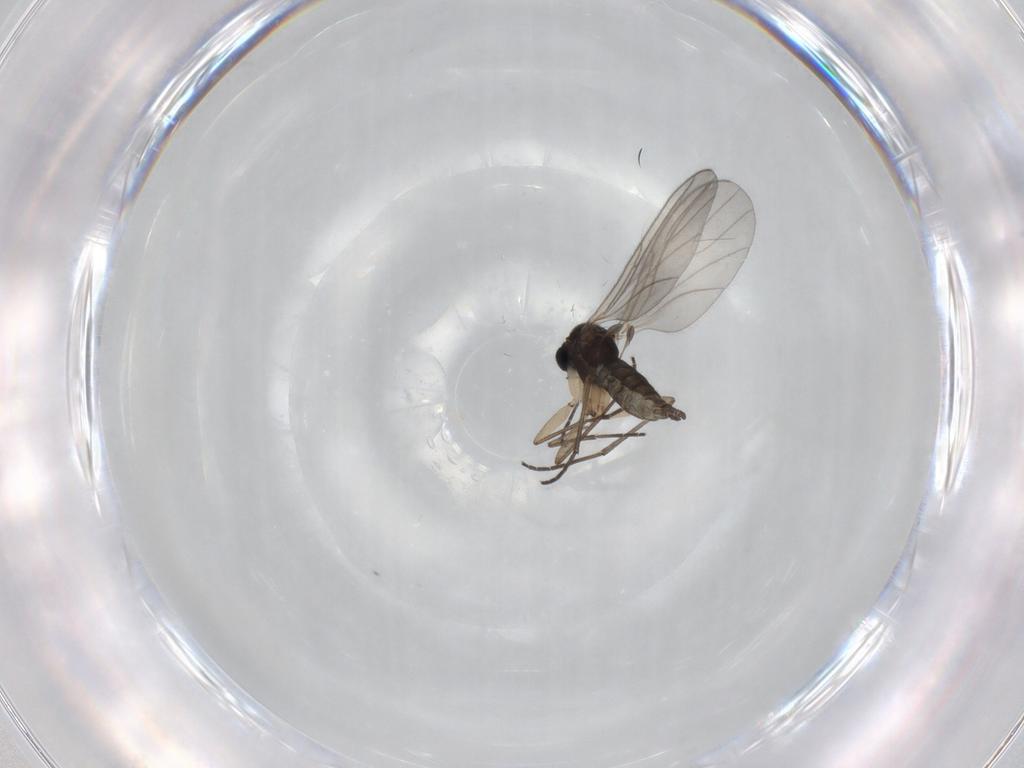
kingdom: Animalia
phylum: Arthropoda
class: Insecta
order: Diptera
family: Sciaridae
